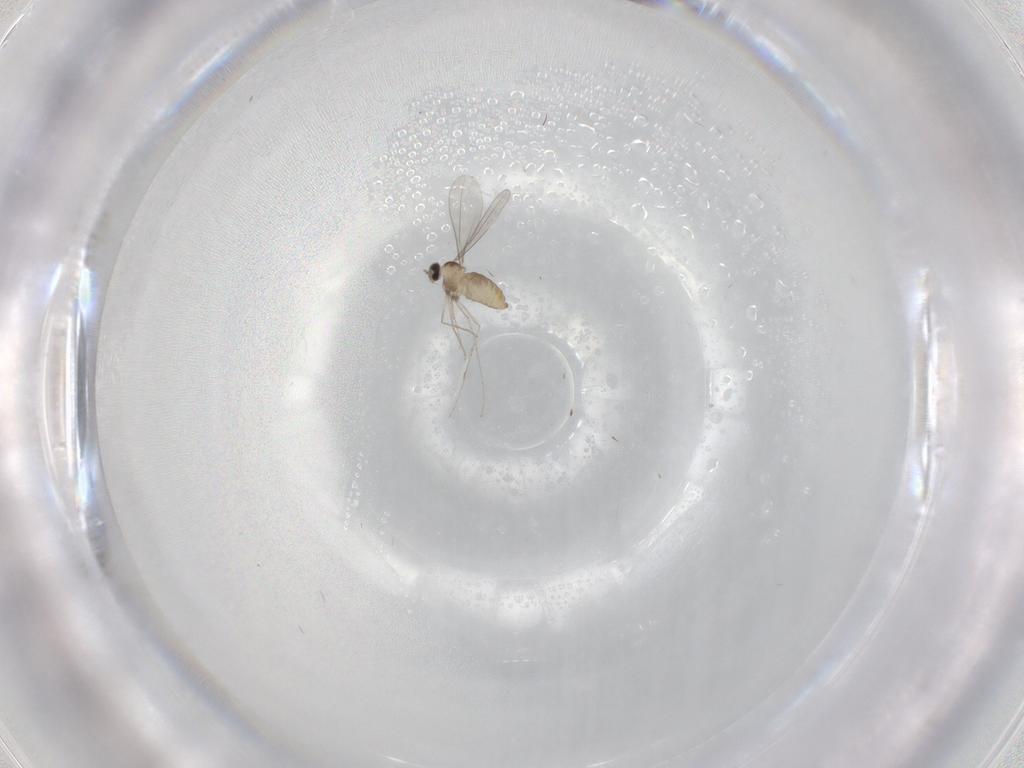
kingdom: Animalia
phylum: Arthropoda
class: Insecta
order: Diptera
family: Cecidomyiidae
